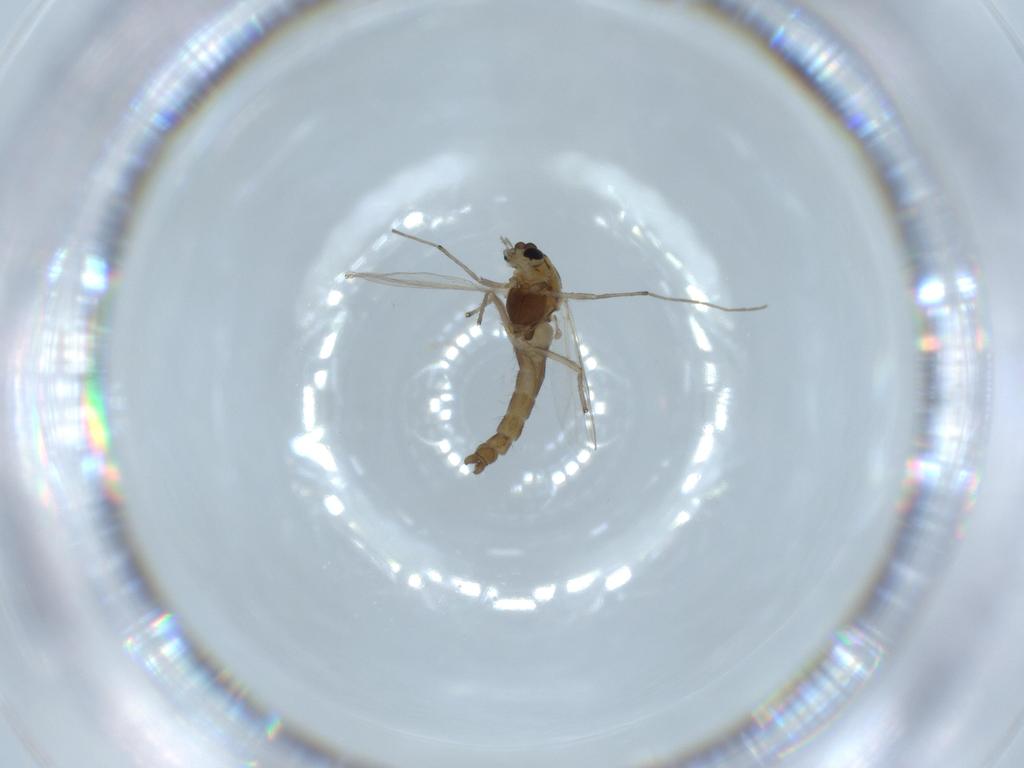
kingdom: Animalia
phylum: Arthropoda
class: Insecta
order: Diptera
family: Chironomidae
